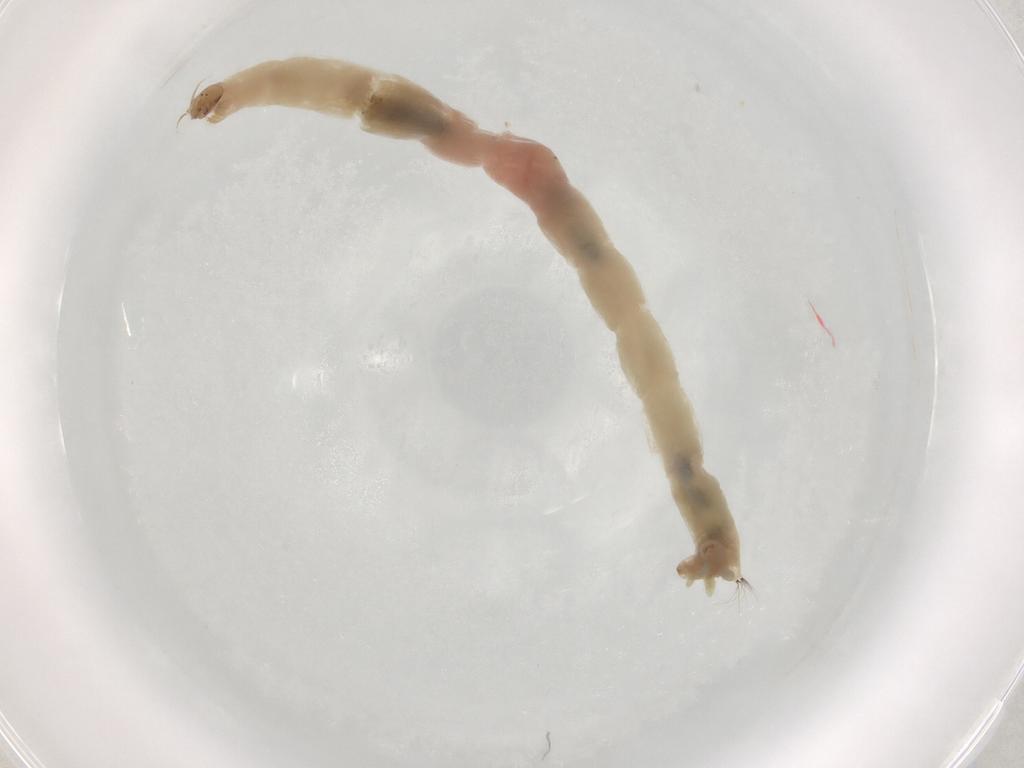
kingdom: Animalia
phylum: Arthropoda
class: Insecta
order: Diptera
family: Chironomidae
